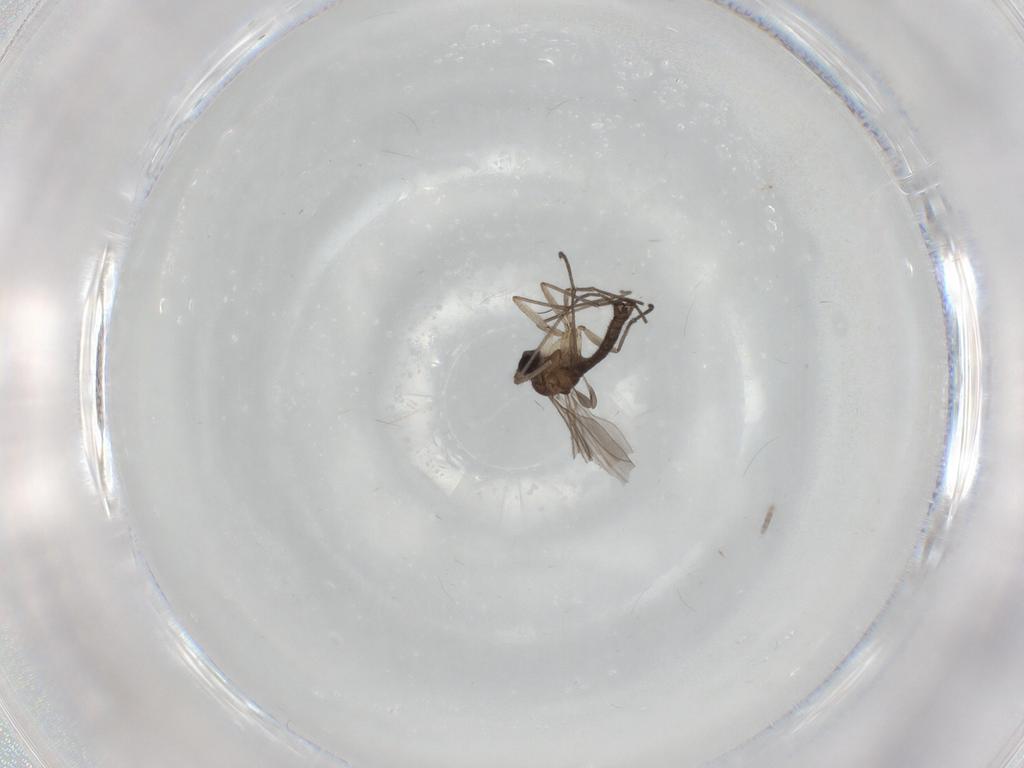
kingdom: Animalia
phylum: Arthropoda
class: Insecta
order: Diptera
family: Sciaridae
